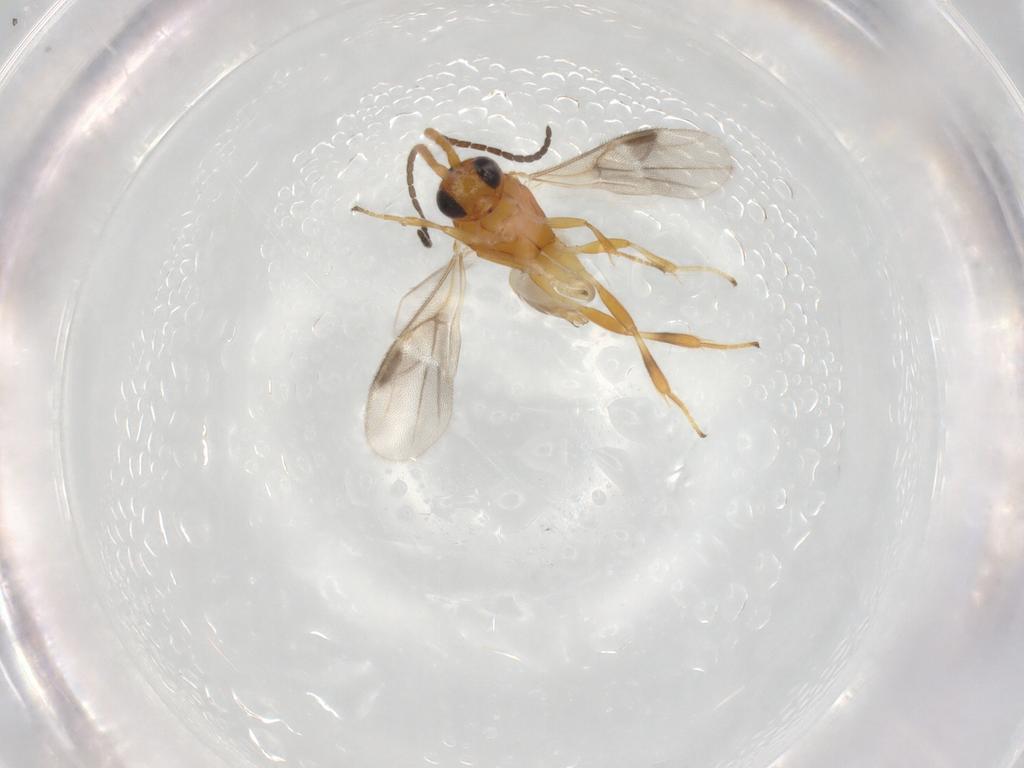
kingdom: Animalia
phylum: Arthropoda
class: Insecta
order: Hymenoptera
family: Braconidae
